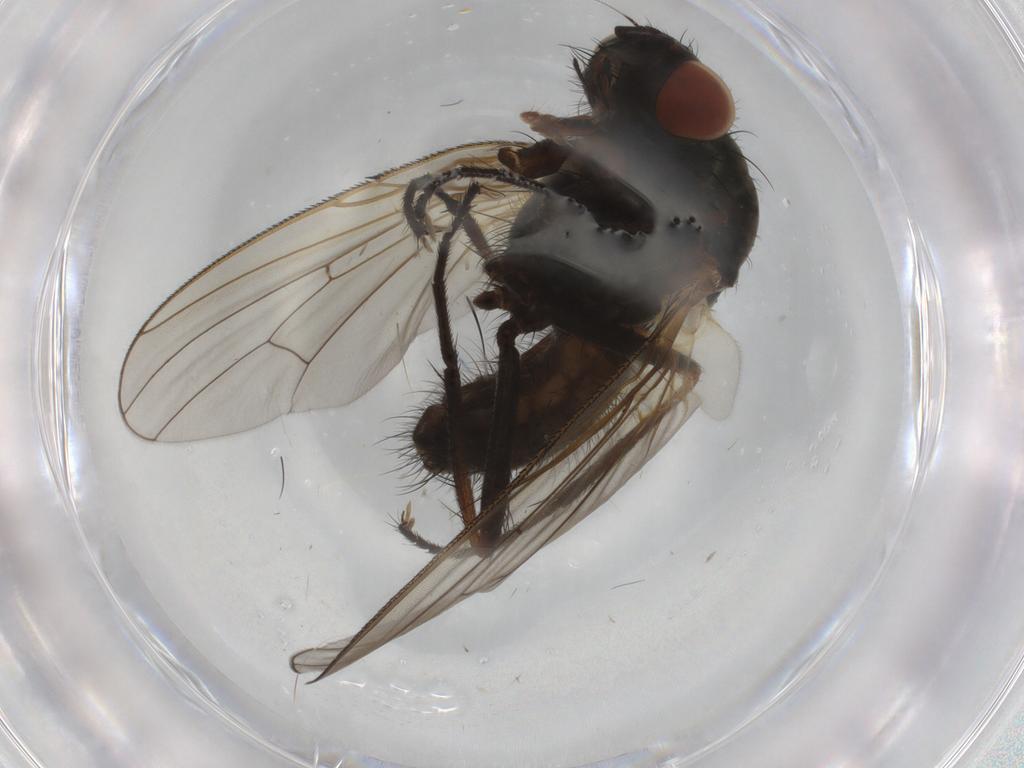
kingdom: Animalia
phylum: Arthropoda
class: Insecta
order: Diptera
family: Anthomyiidae
